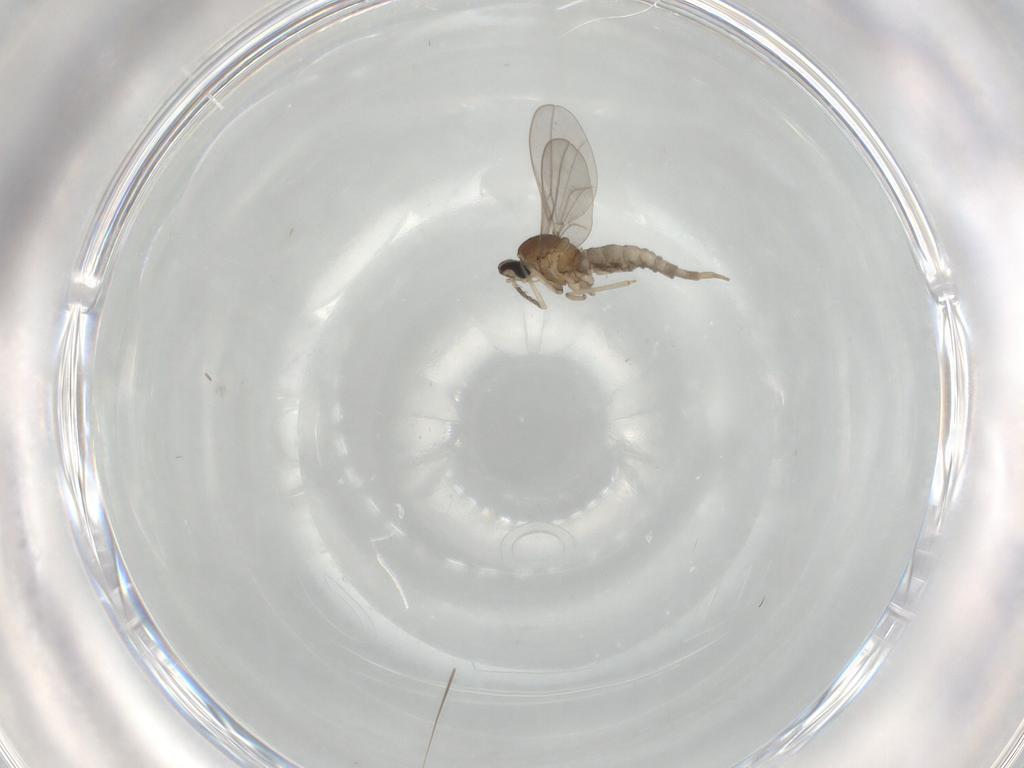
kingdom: Animalia
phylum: Arthropoda
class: Insecta
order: Diptera
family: Cecidomyiidae
